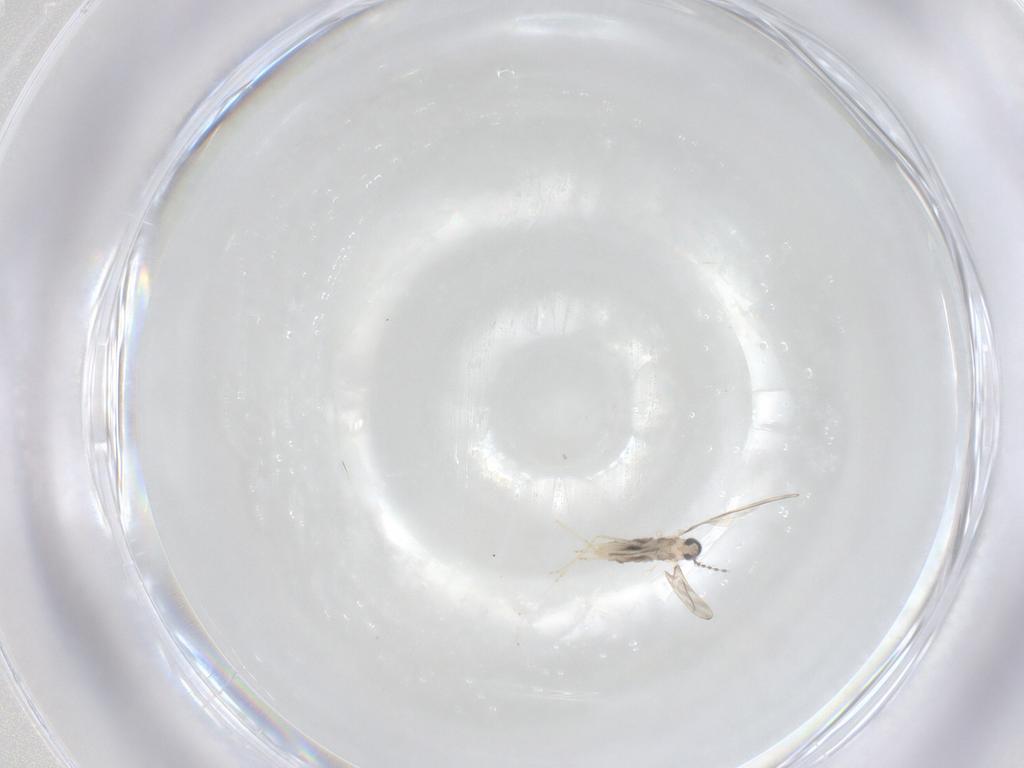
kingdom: Animalia
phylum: Arthropoda
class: Insecta
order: Diptera
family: Cecidomyiidae
